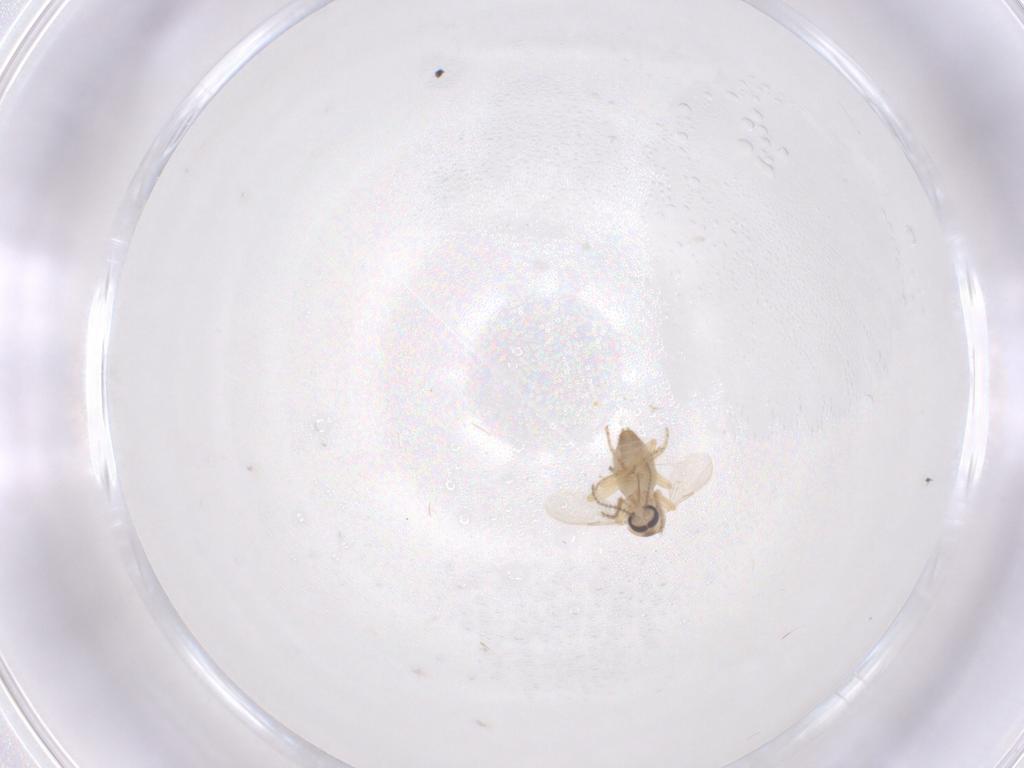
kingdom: Animalia
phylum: Arthropoda
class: Insecta
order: Diptera
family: Ceratopogonidae
